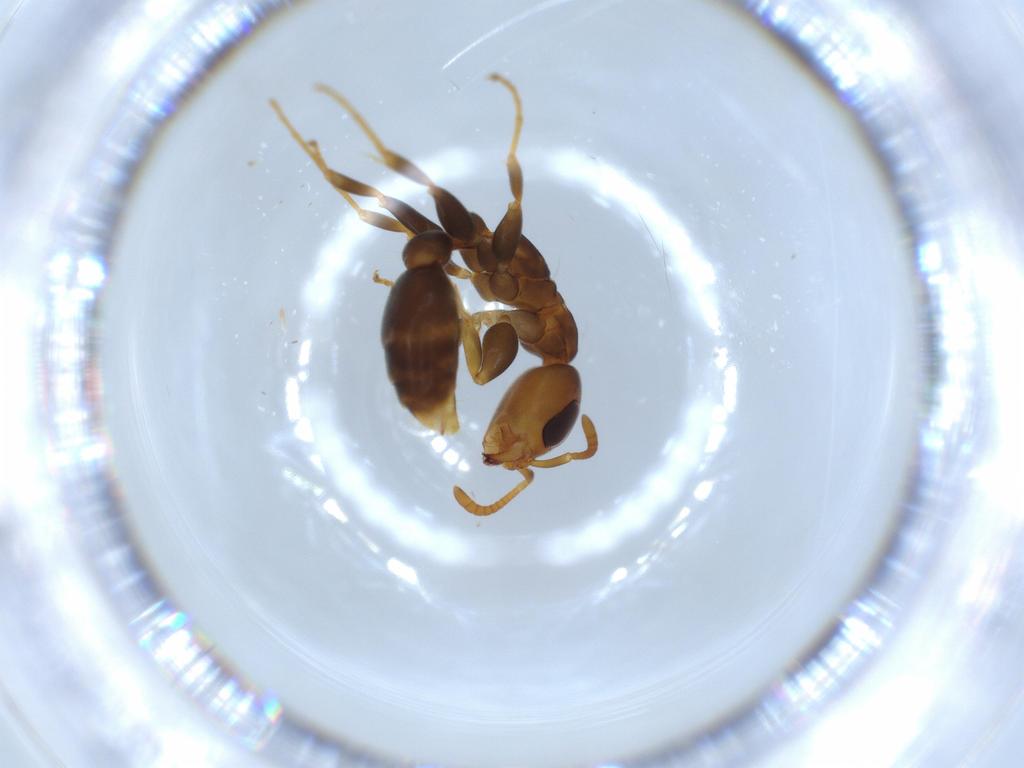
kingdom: Animalia
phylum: Arthropoda
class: Insecta
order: Hymenoptera
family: Formicidae
